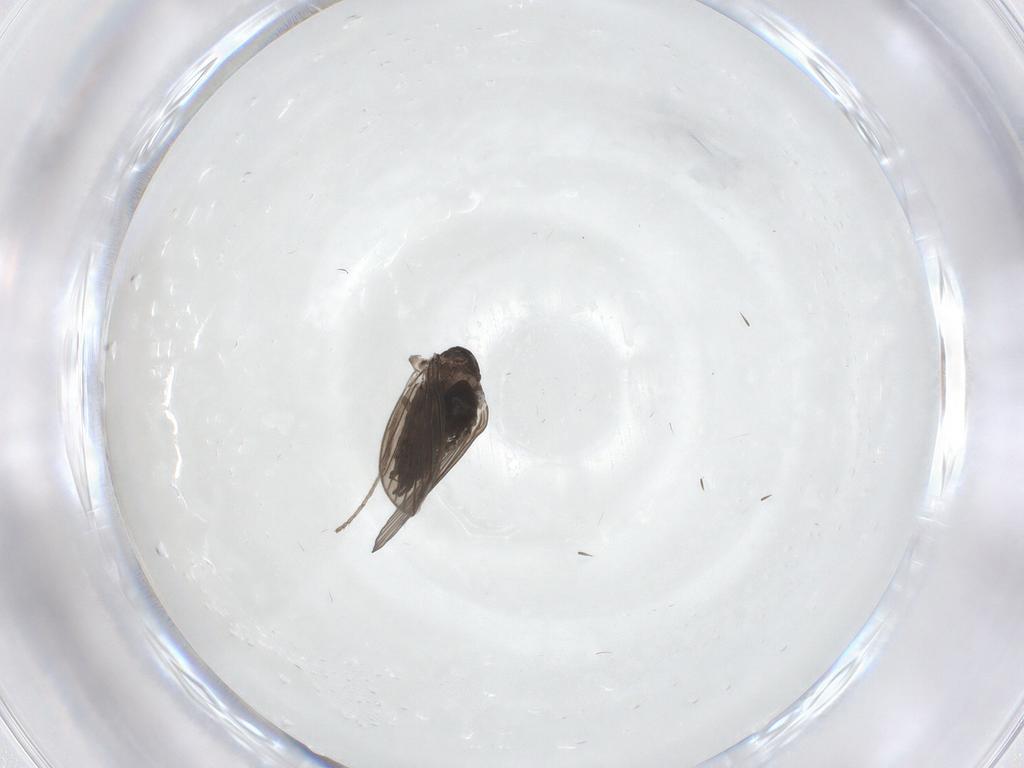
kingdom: Animalia
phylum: Arthropoda
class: Insecta
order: Diptera
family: Psychodidae
